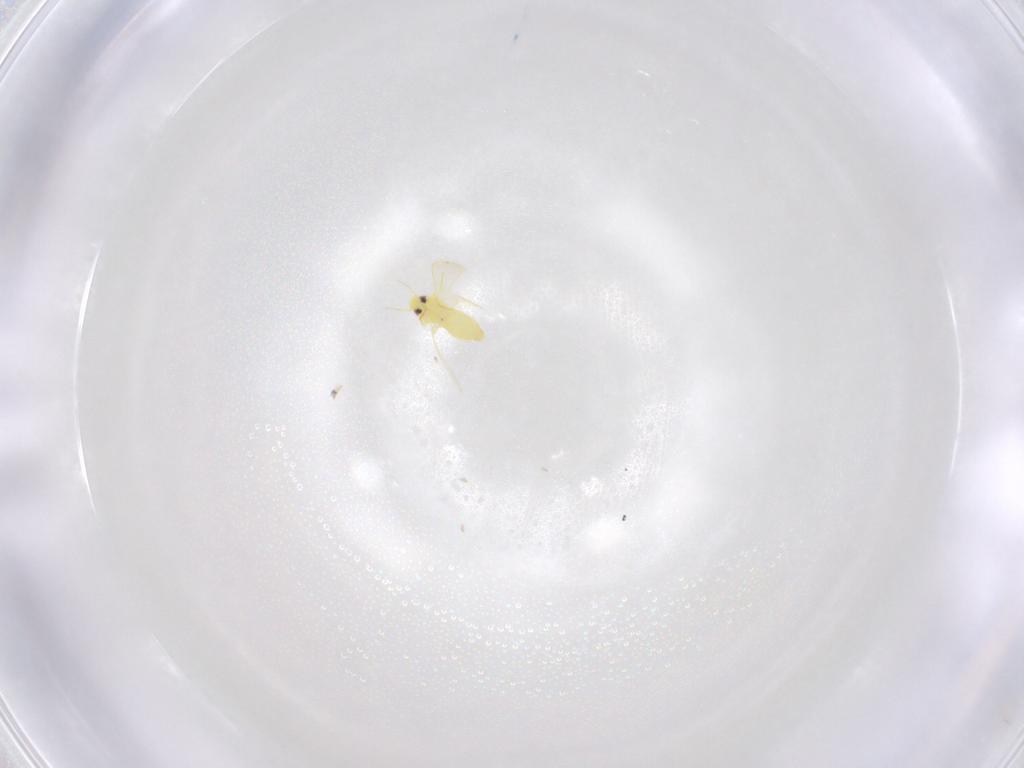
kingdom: Animalia
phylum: Arthropoda
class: Insecta
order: Hemiptera
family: Aleyrodidae
